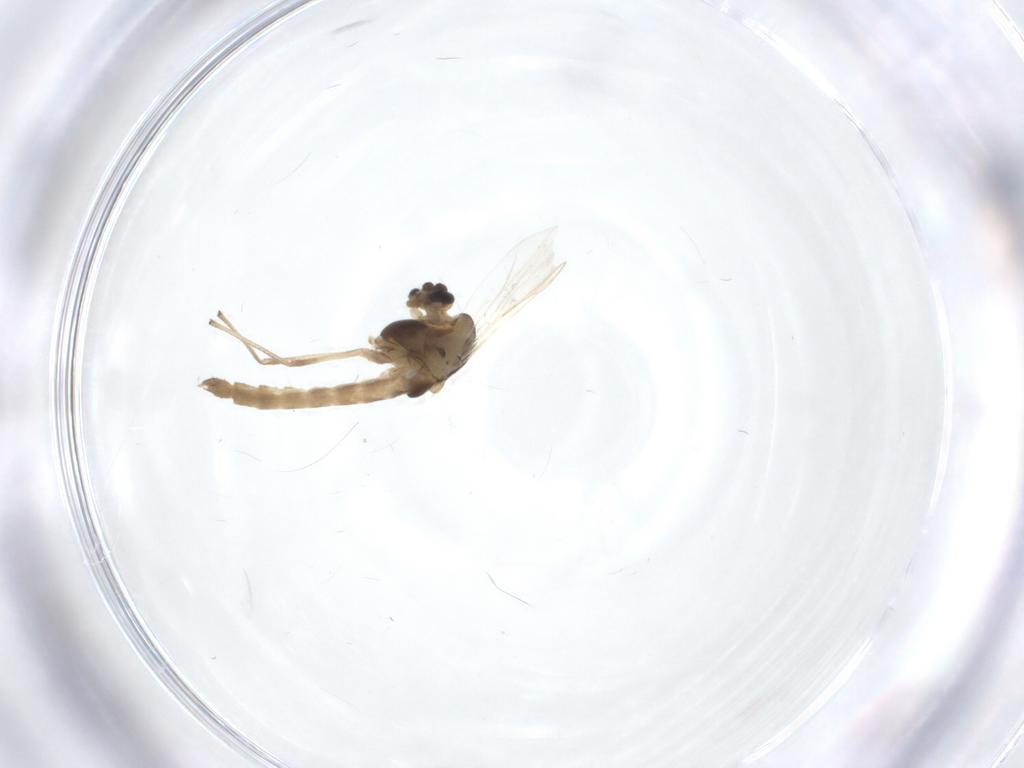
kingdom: Animalia
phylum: Arthropoda
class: Insecta
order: Diptera
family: Chironomidae
